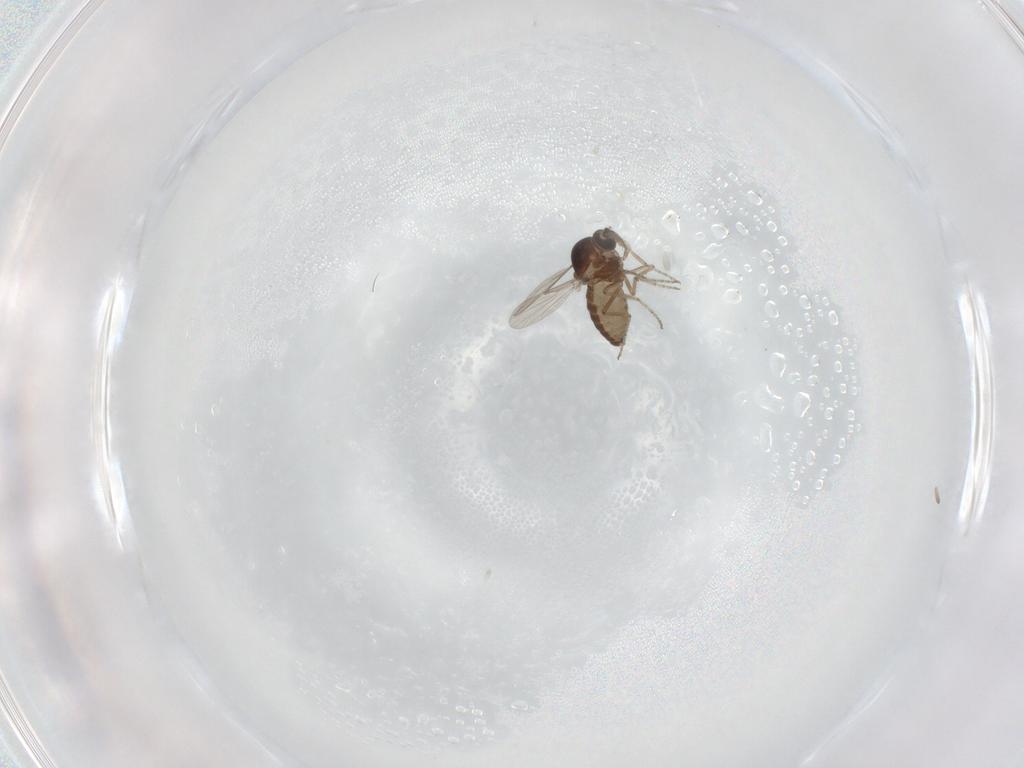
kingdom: Animalia
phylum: Arthropoda
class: Insecta
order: Diptera
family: Ceratopogonidae
